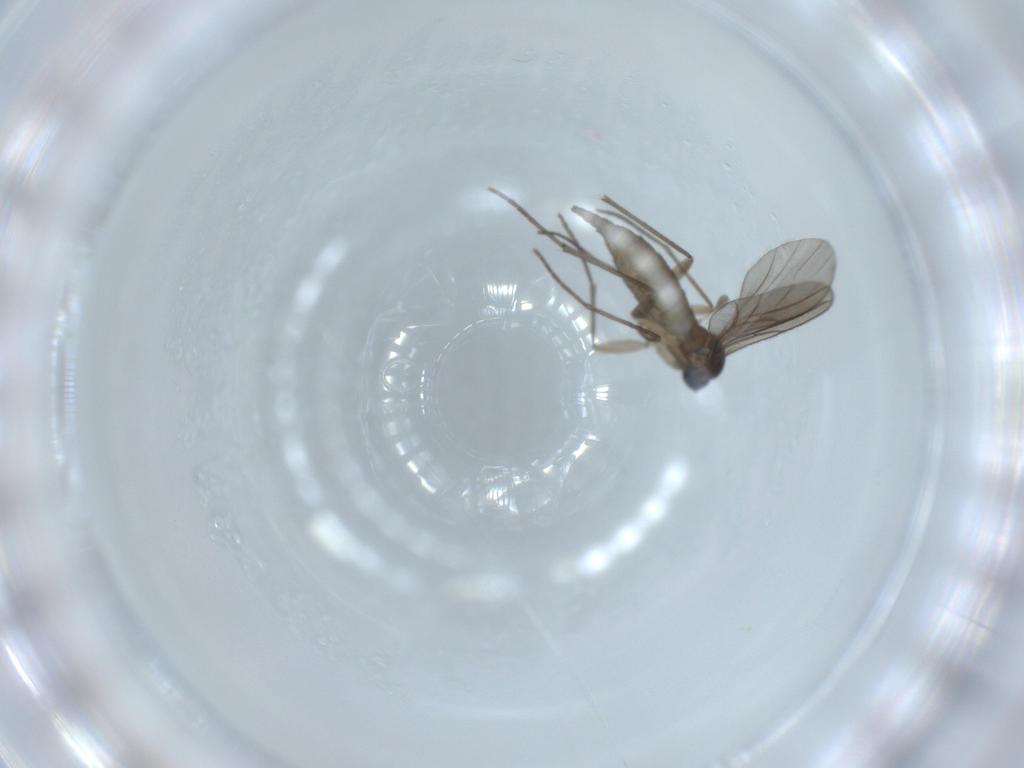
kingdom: Animalia
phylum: Arthropoda
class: Insecta
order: Diptera
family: Sciaridae
